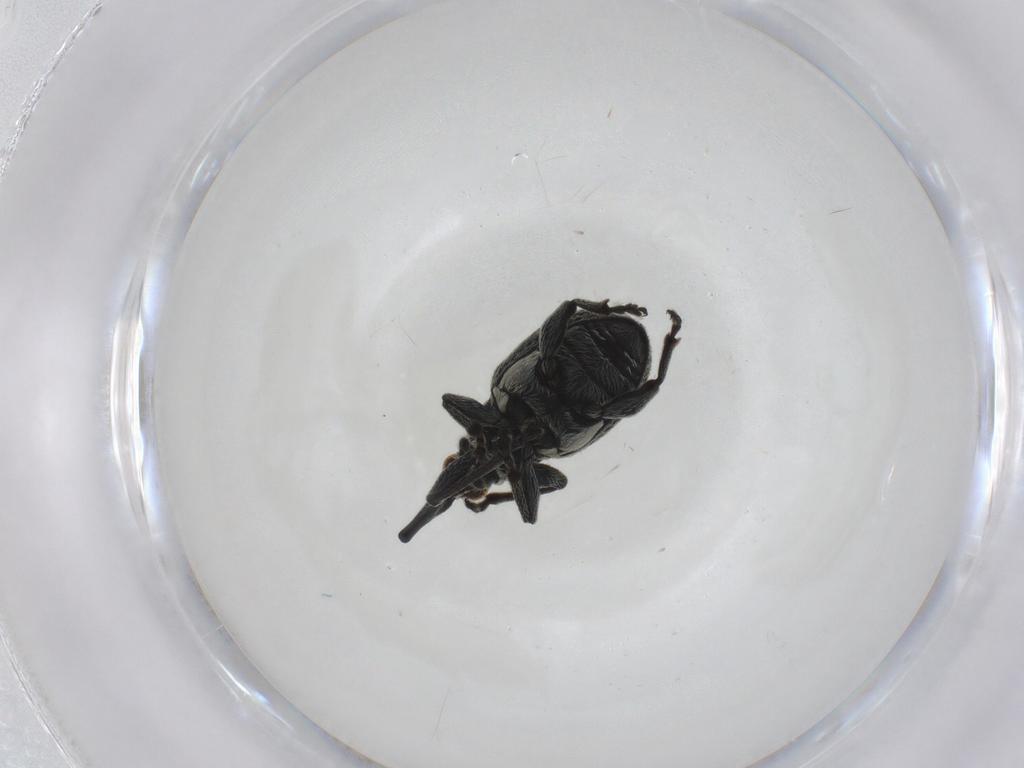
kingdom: Animalia
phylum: Arthropoda
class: Insecta
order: Coleoptera
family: Brentidae
